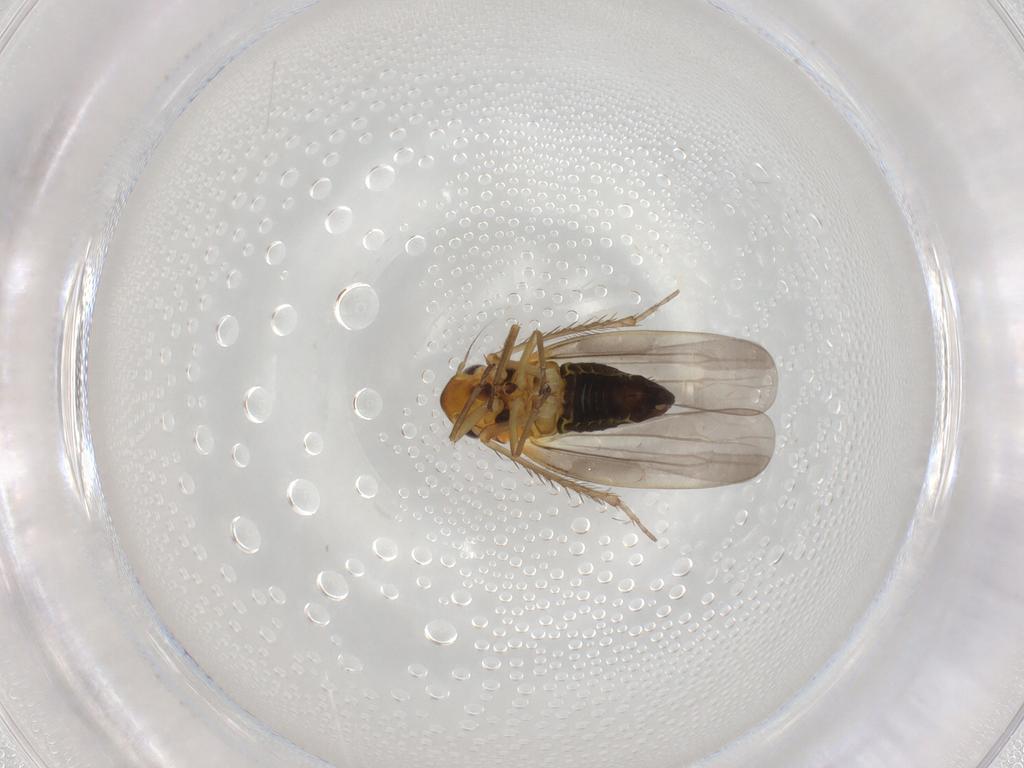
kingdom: Animalia
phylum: Arthropoda
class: Insecta
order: Hemiptera
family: Cicadellidae
